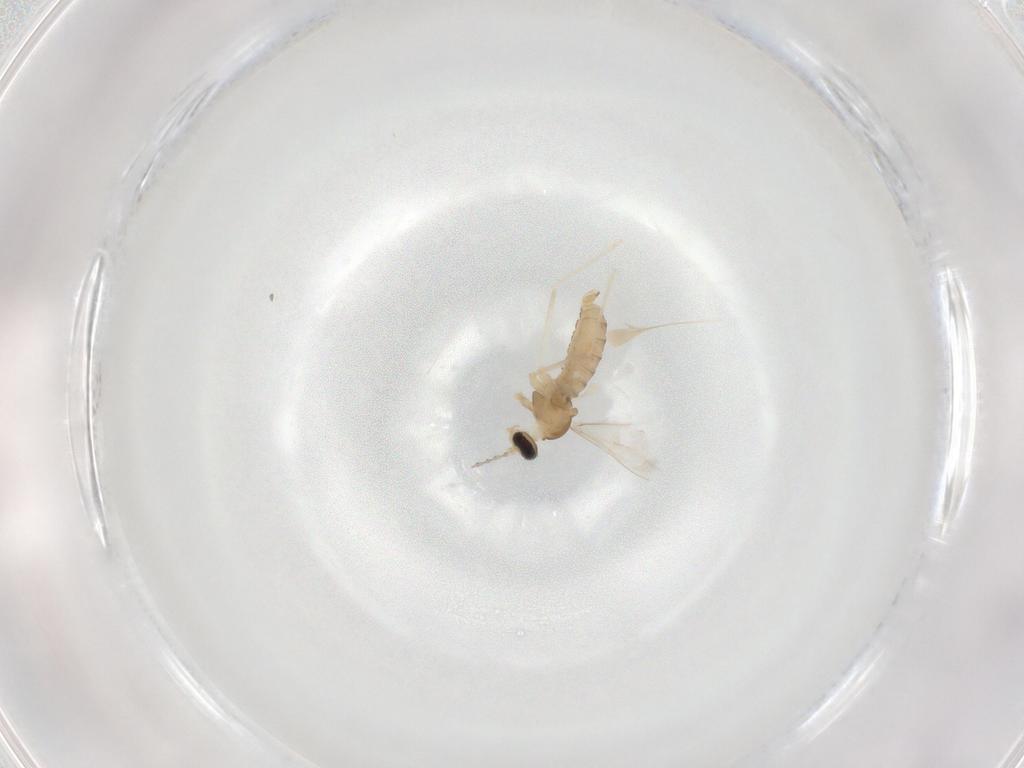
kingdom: Animalia
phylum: Arthropoda
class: Insecta
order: Diptera
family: Cecidomyiidae
